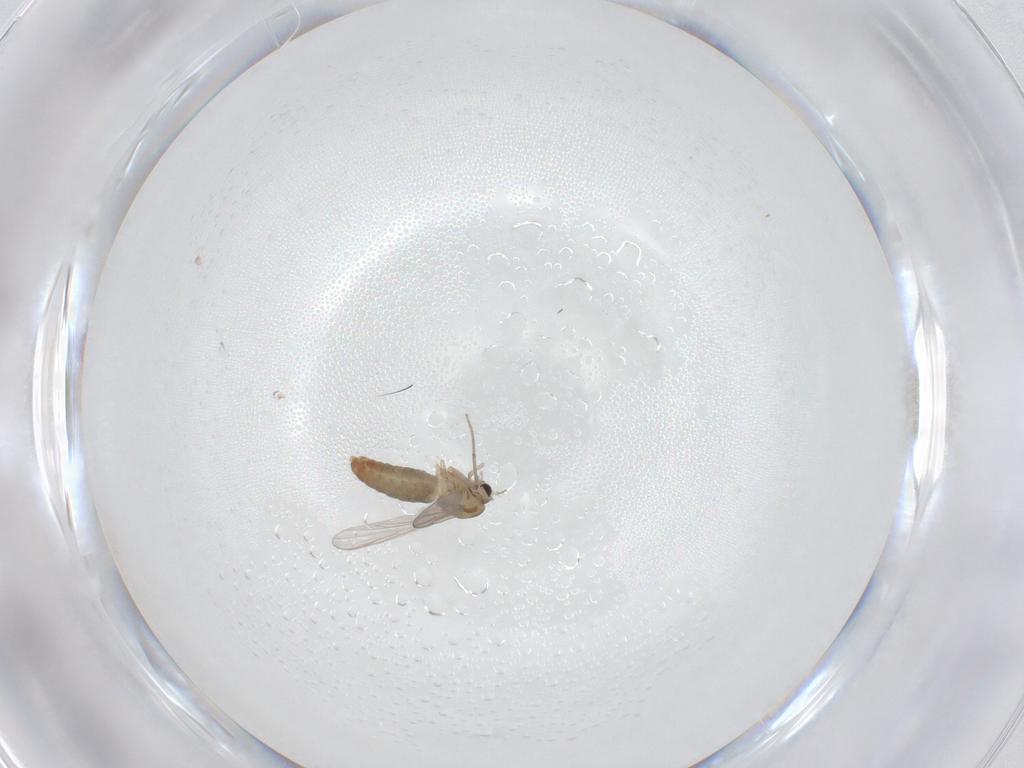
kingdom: Animalia
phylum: Arthropoda
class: Insecta
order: Diptera
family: Chironomidae
